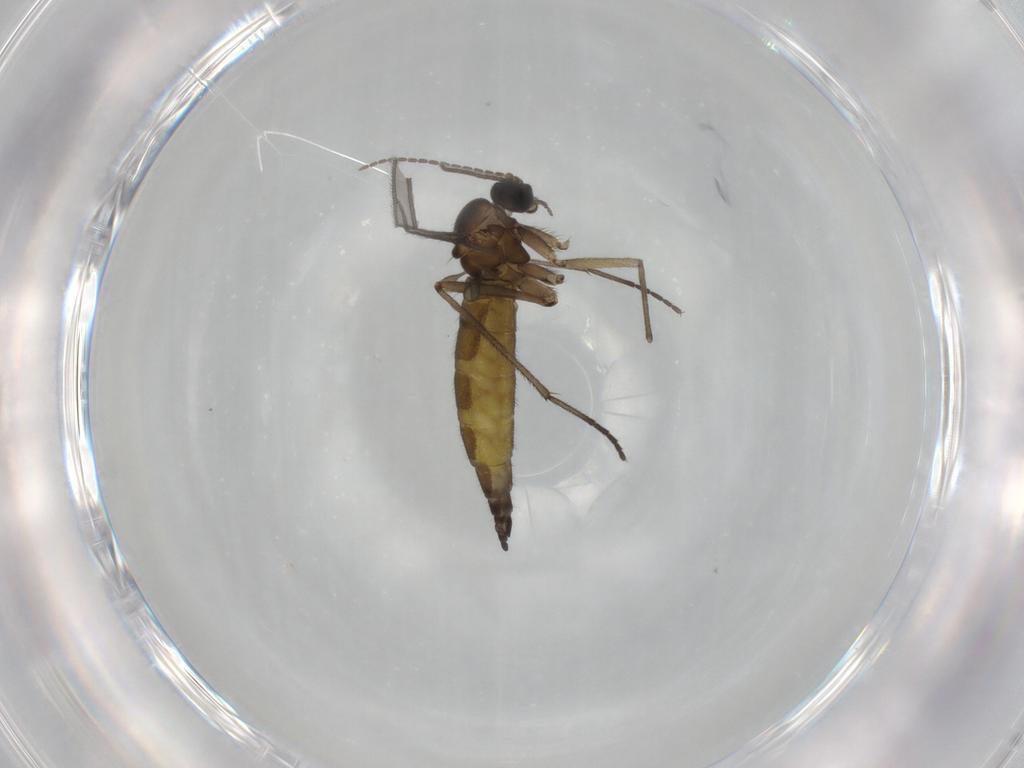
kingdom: Animalia
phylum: Arthropoda
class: Insecta
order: Diptera
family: Sciaridae
